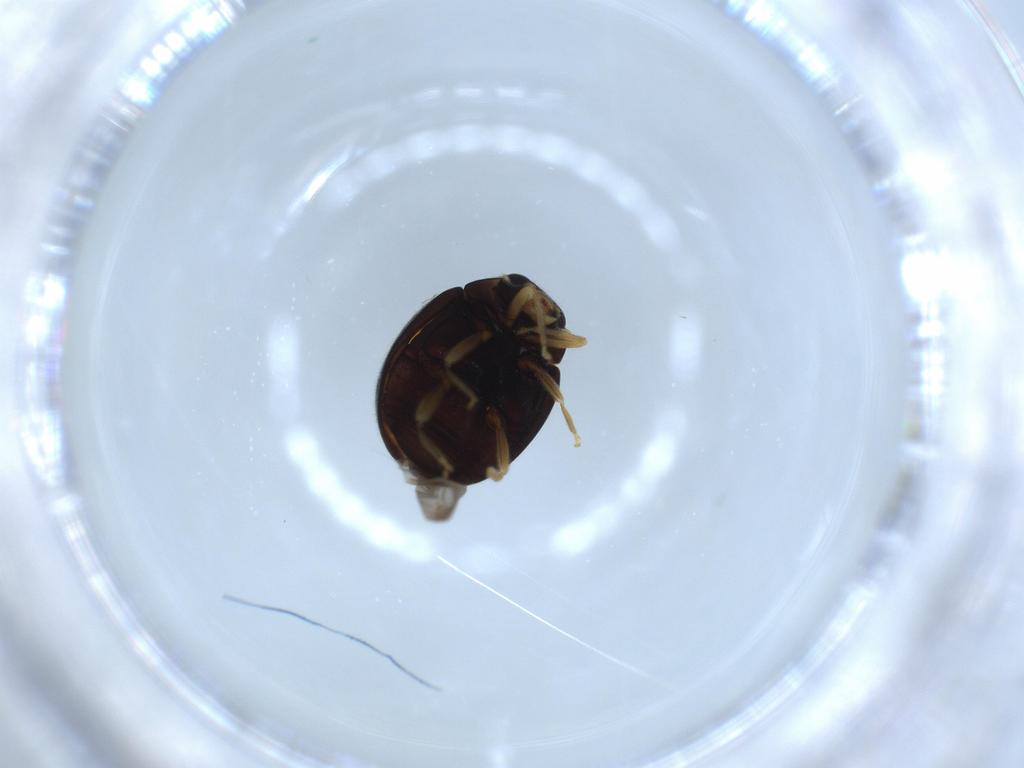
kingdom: Animalia
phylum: Arthropoda
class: Insecta
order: Coleoptera
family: Coccinellidae
